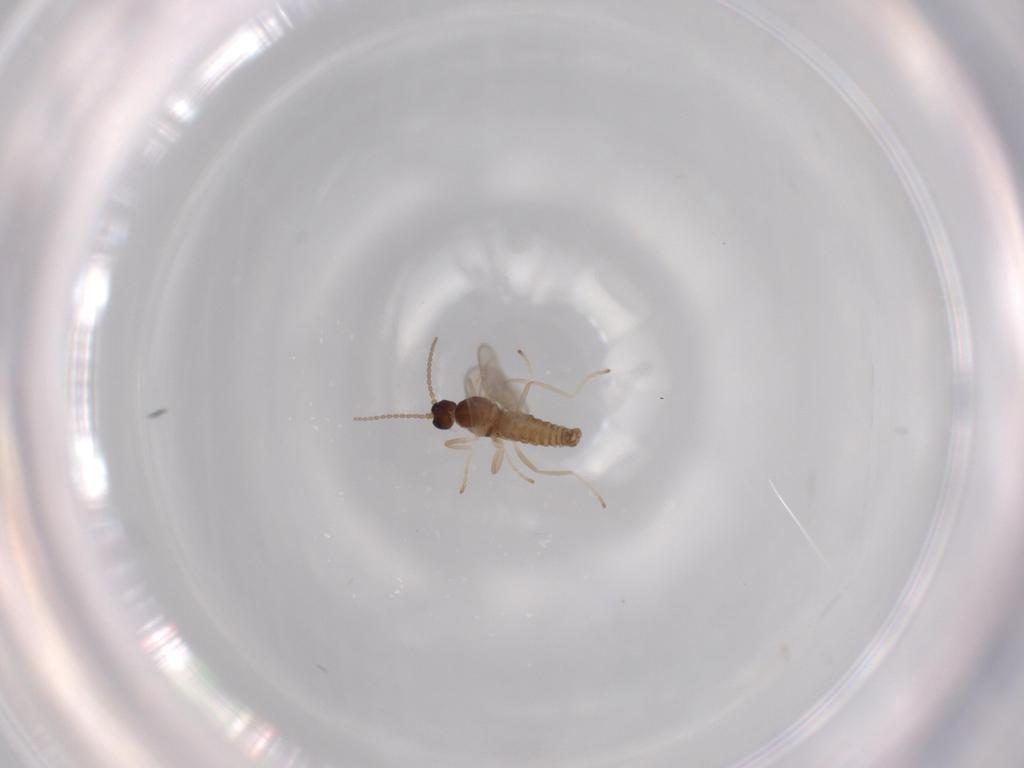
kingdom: Animalia
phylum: Arthropoda
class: Insecta
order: Diptera
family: Cecidomyiidae
